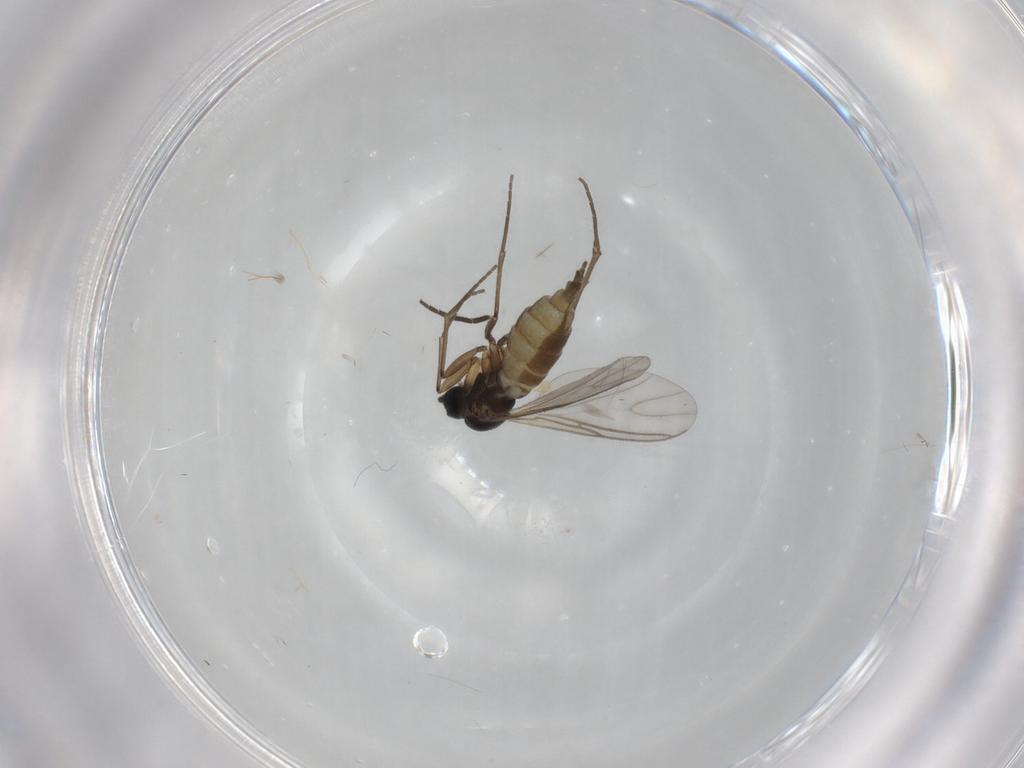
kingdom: Animalia
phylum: Arthropoda
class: Insecta
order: Diptera
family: Sciaridae
